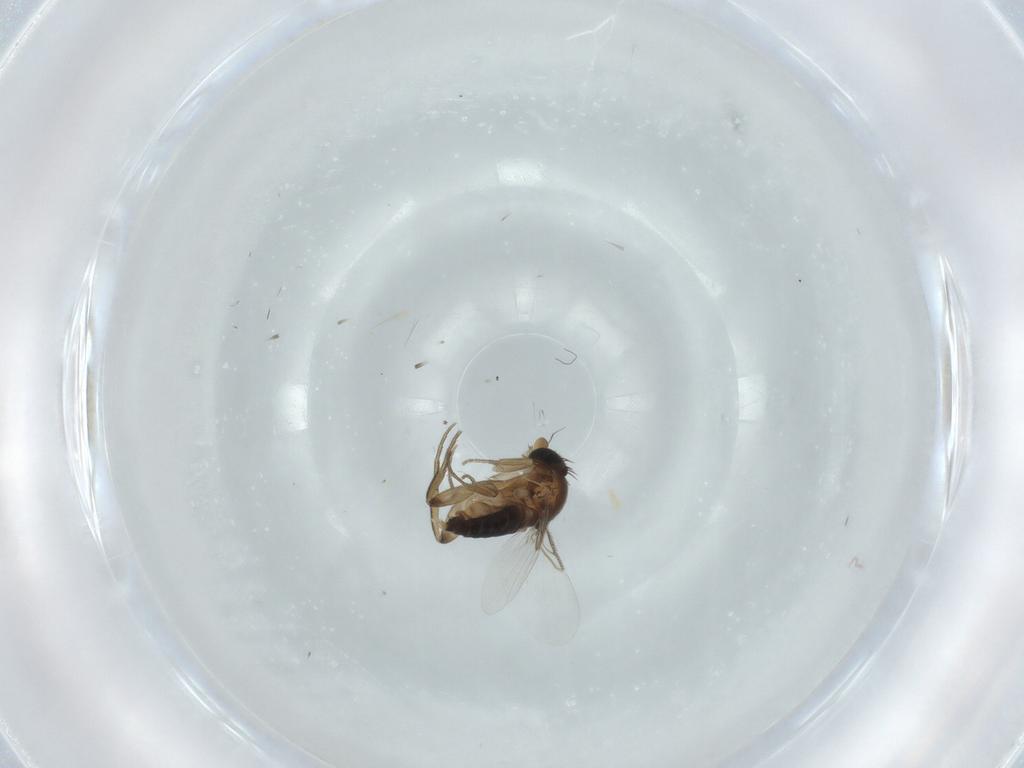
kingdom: Animalia
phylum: Arthropoda
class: Insecta
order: Diptera
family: Phoridae
